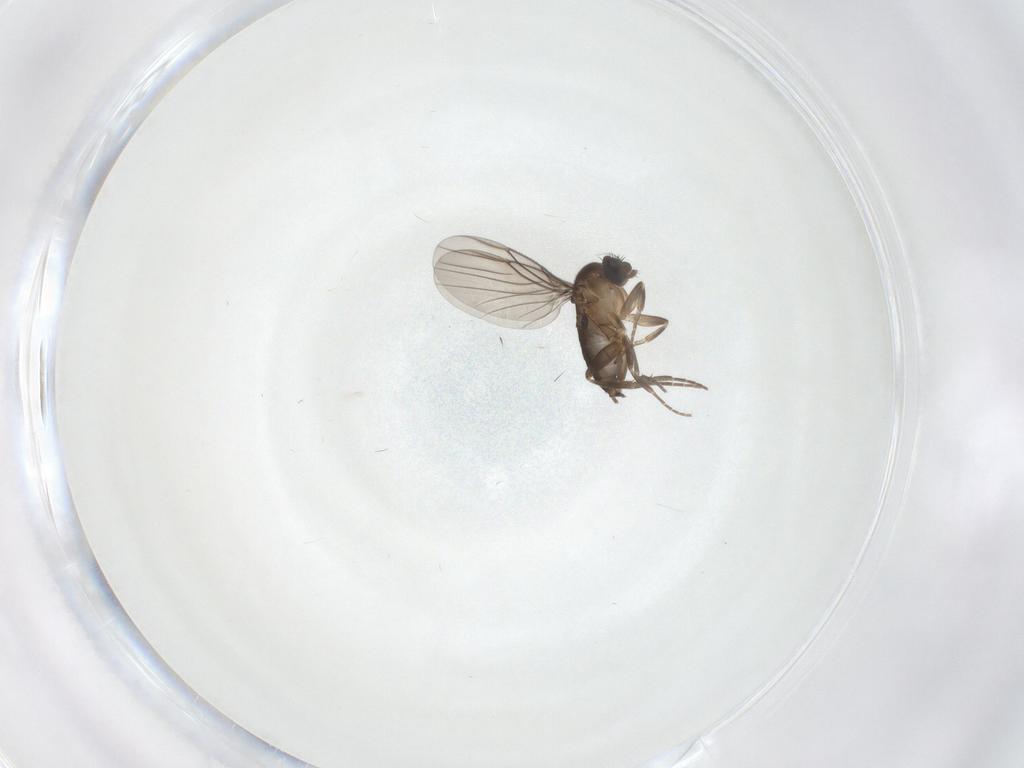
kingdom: Animalia
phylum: Arthropoda
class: Insecta
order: Diptera
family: Phoridae
